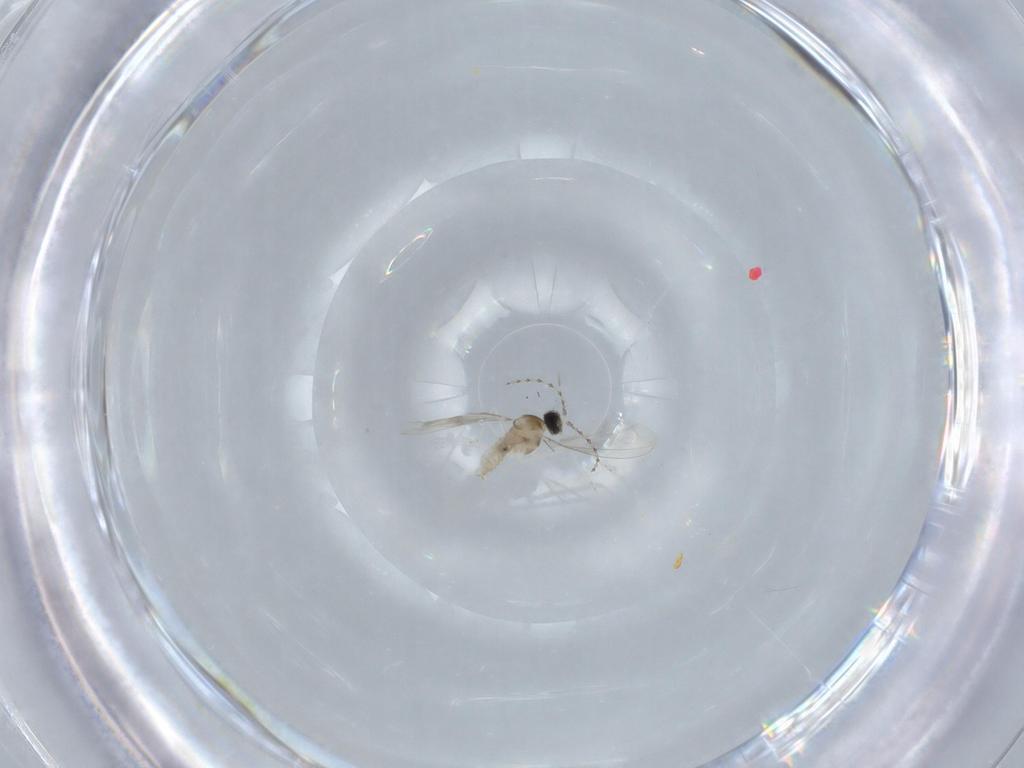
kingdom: Animalia
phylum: Arthropoda
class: Insecta
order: Diptera
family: Cecidomyiidae
